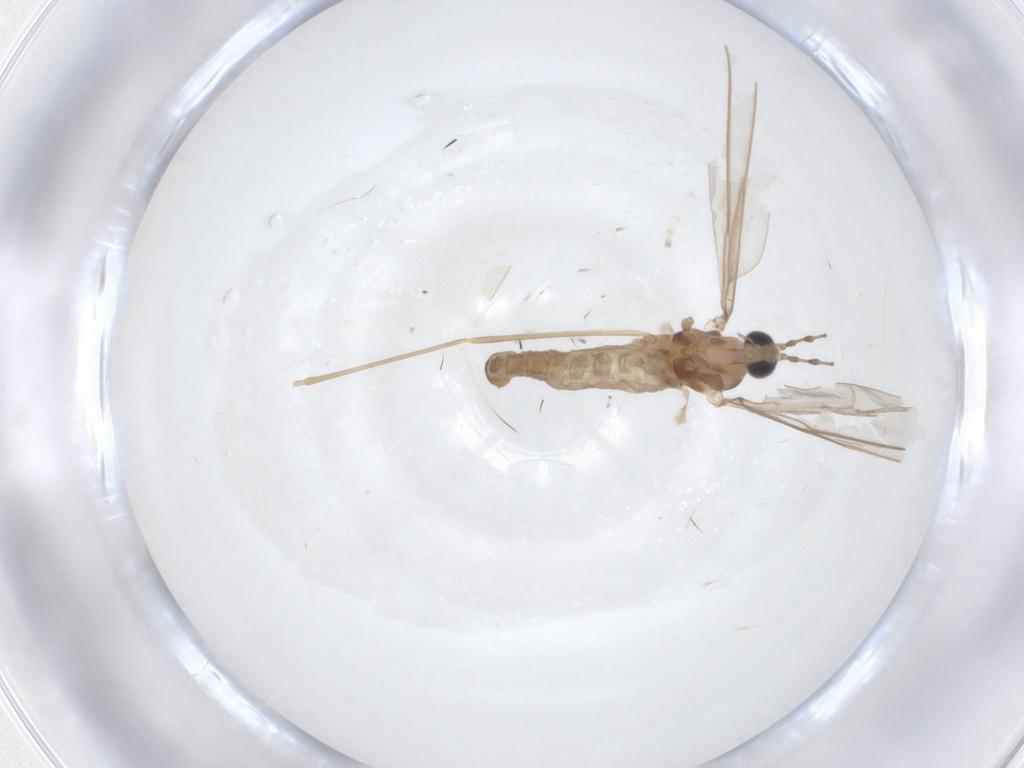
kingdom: Animalia
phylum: Arthropoda
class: Insecta
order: Diptera
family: Cecidomyiidae
